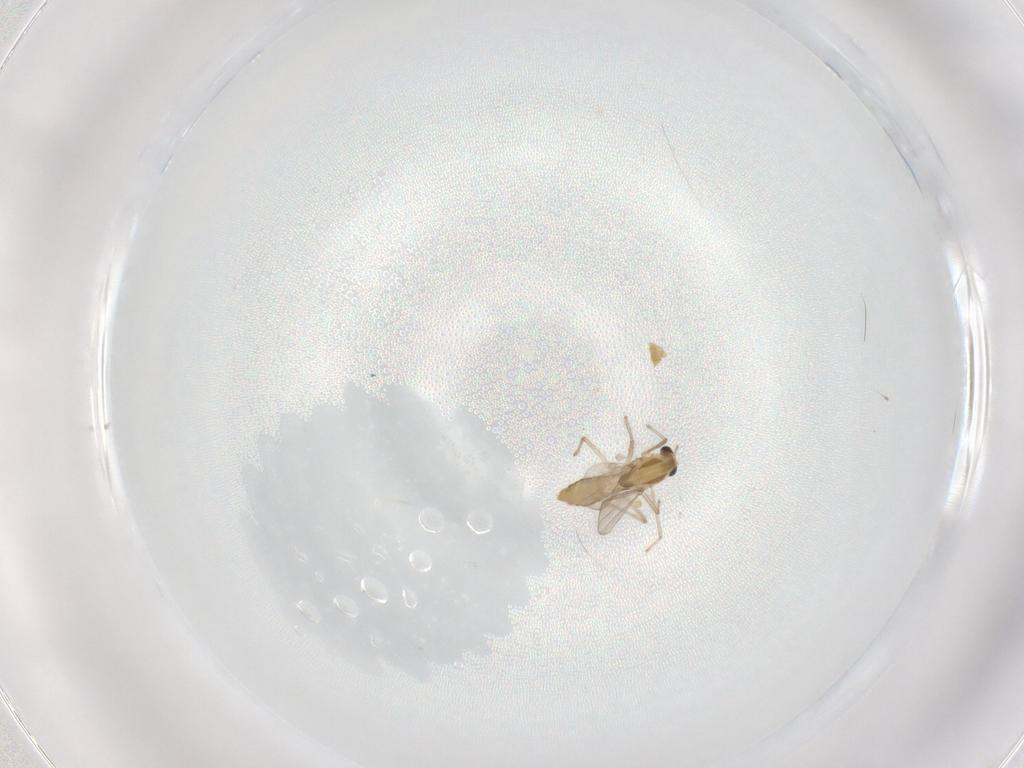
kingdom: Animalia
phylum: Arthropoda
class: Insecta
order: Diptera
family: Chironomidae
